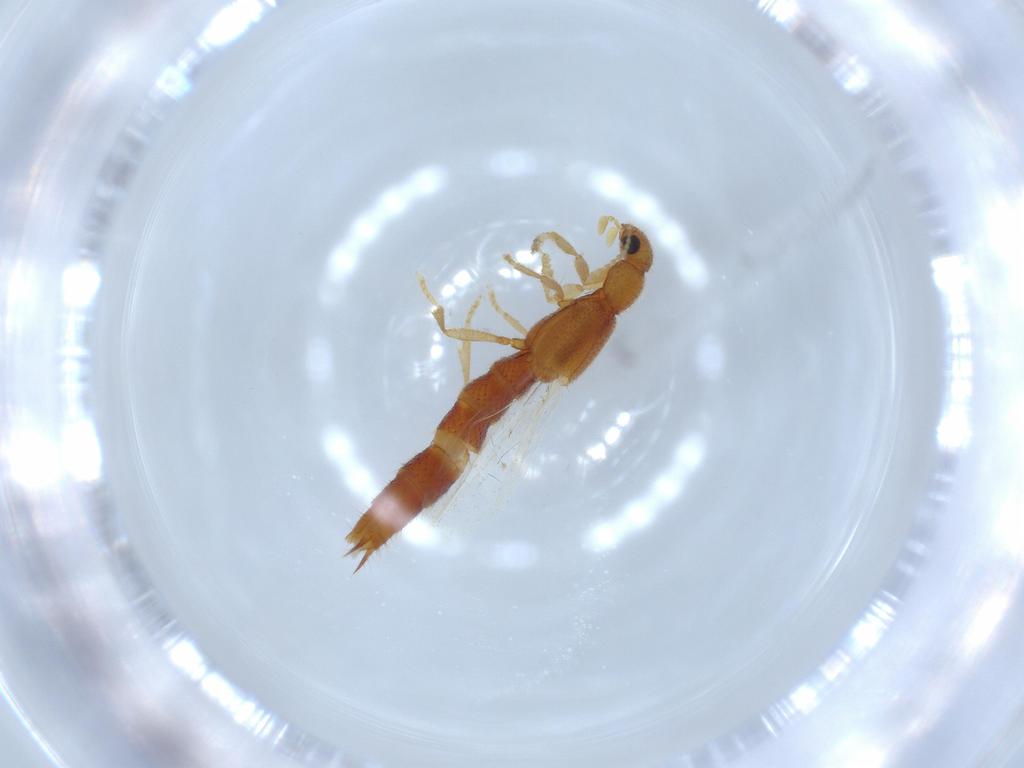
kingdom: Animalia
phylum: Arthropoda
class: Insecta
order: Coleoptera
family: Staphylinidae
